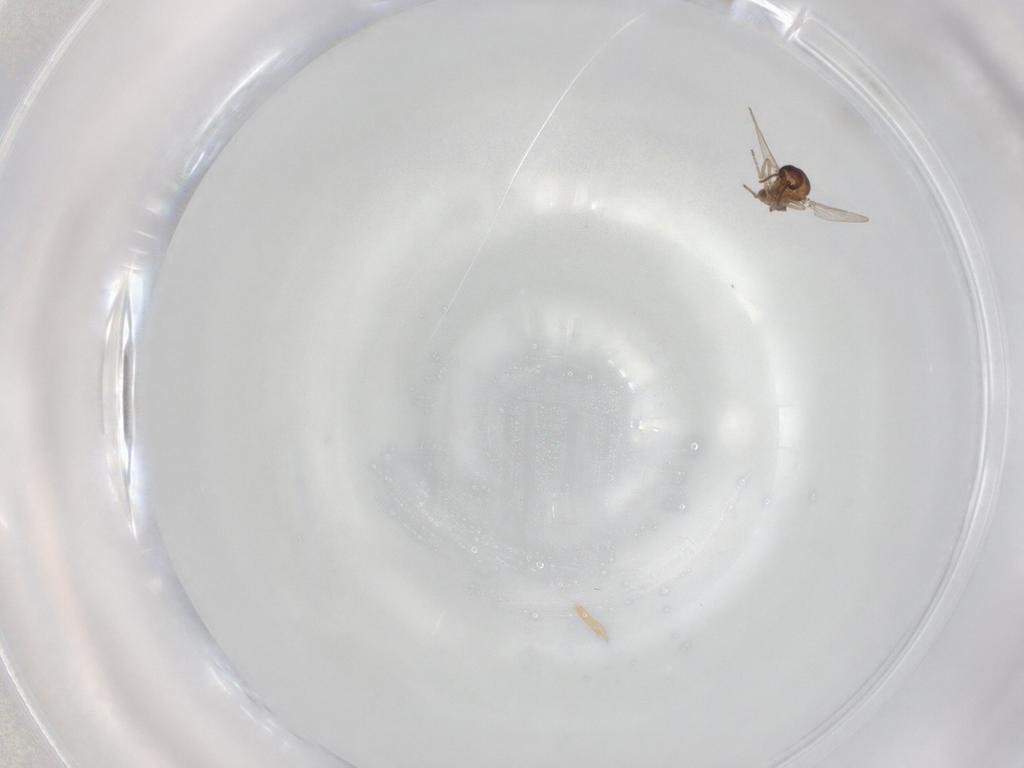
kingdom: Animalia
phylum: Arthropoda
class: Insecta
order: Diptera
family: Ceratopogonidae
